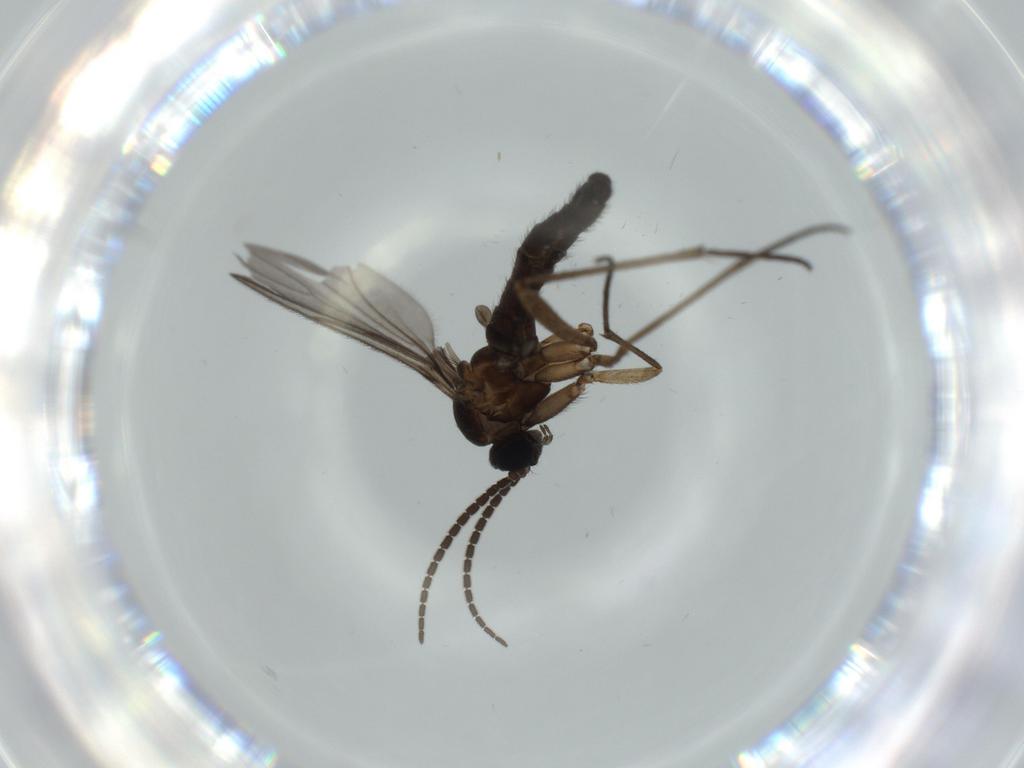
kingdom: Animalia
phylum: Arthropoda
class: Insecta
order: Diptera
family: Sciaridae
